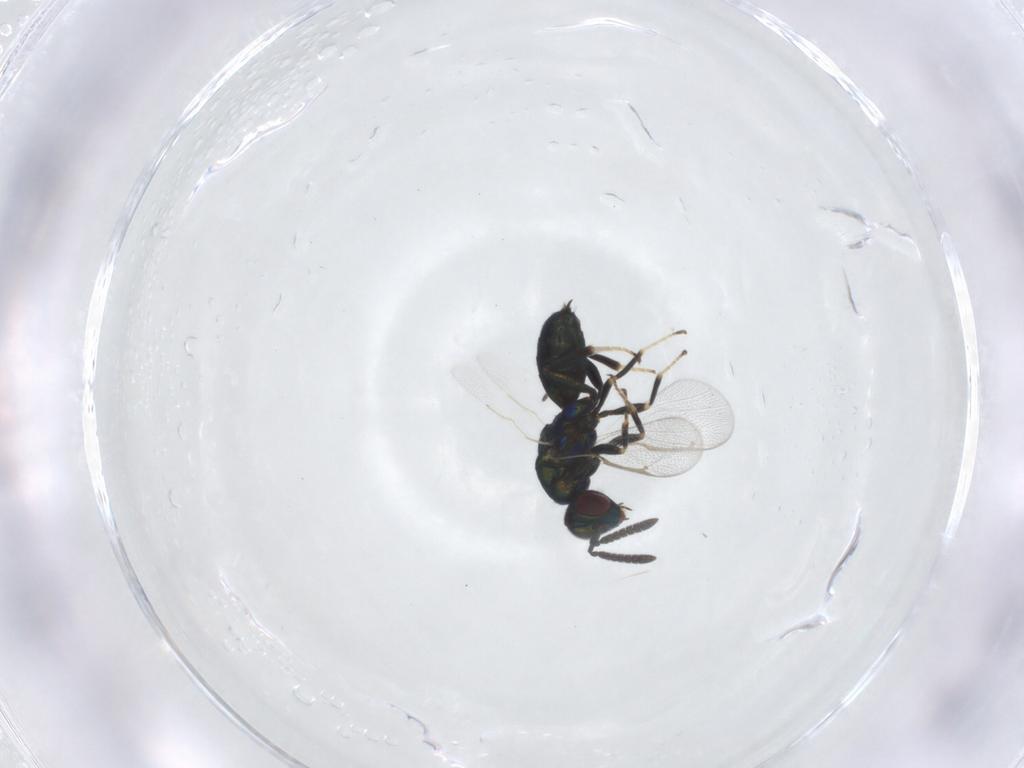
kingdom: Animalia
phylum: Arthropoda
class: Insecta
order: Hymenoptera
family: Torymidae
